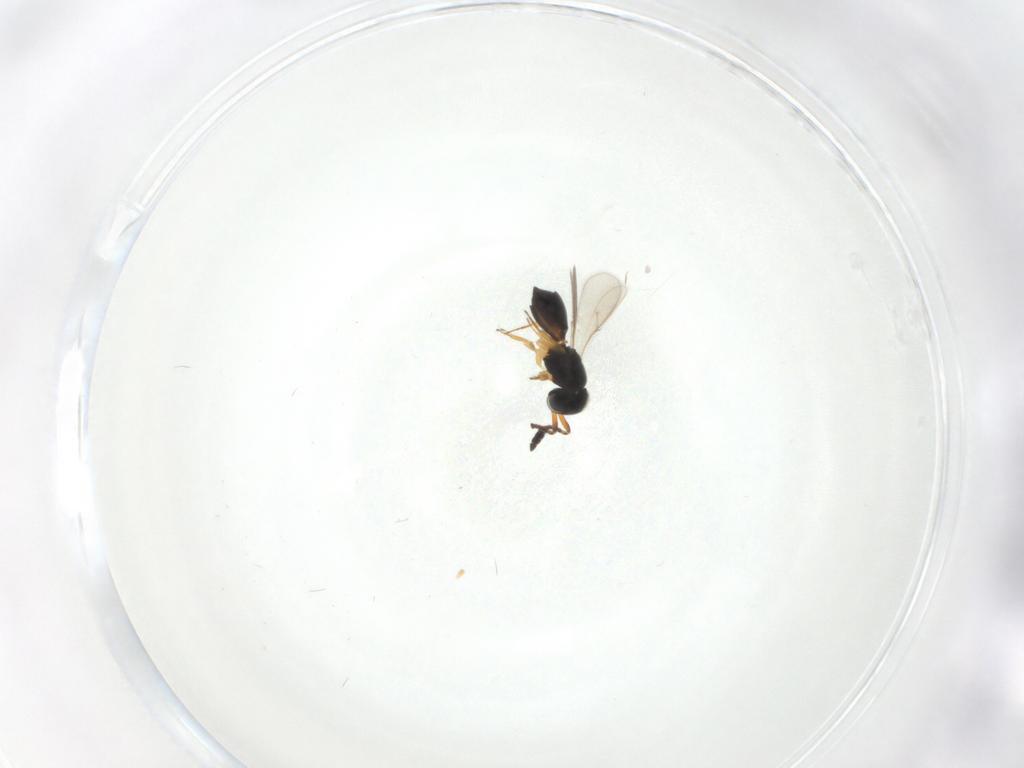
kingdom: Animalia
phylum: Arthropoda
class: Insecta
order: Hymenoptera
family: Scelionidae
